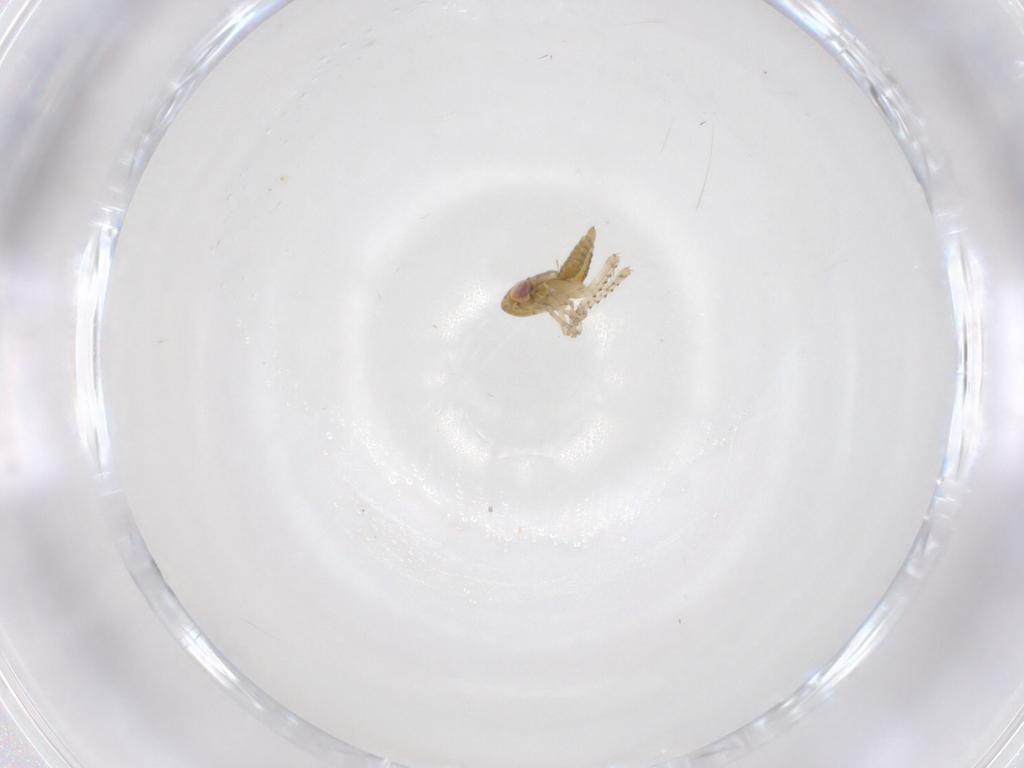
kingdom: Animalia
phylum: Arthropoda
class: Insecta
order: Hemiptera
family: Cicadellidae
